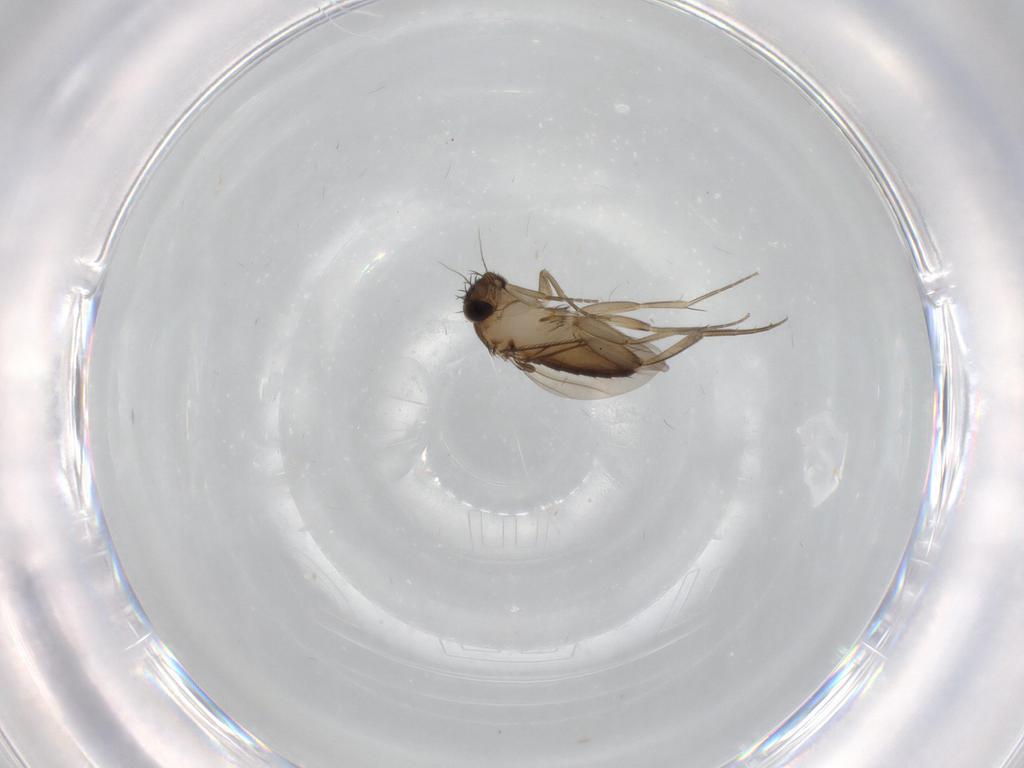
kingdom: Animalia
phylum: Arthropoda
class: Insecta
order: Diptera
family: Phoridae
